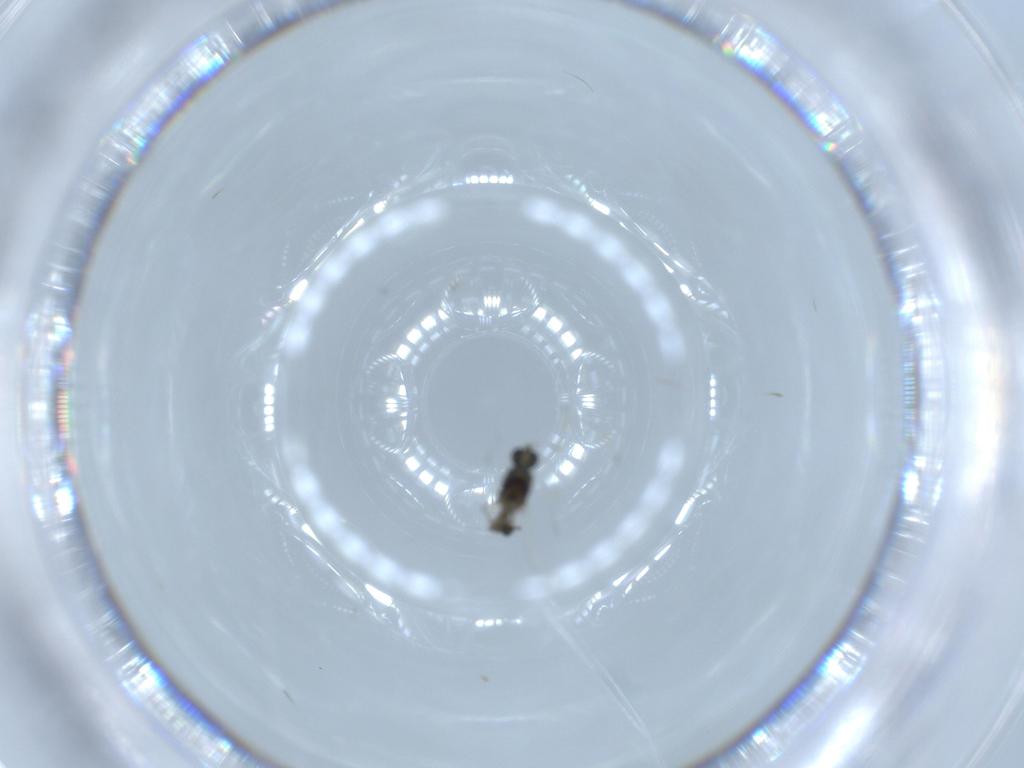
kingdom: Animalia
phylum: Arthropoda
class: Insecta
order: Diptera
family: Chironomidae
